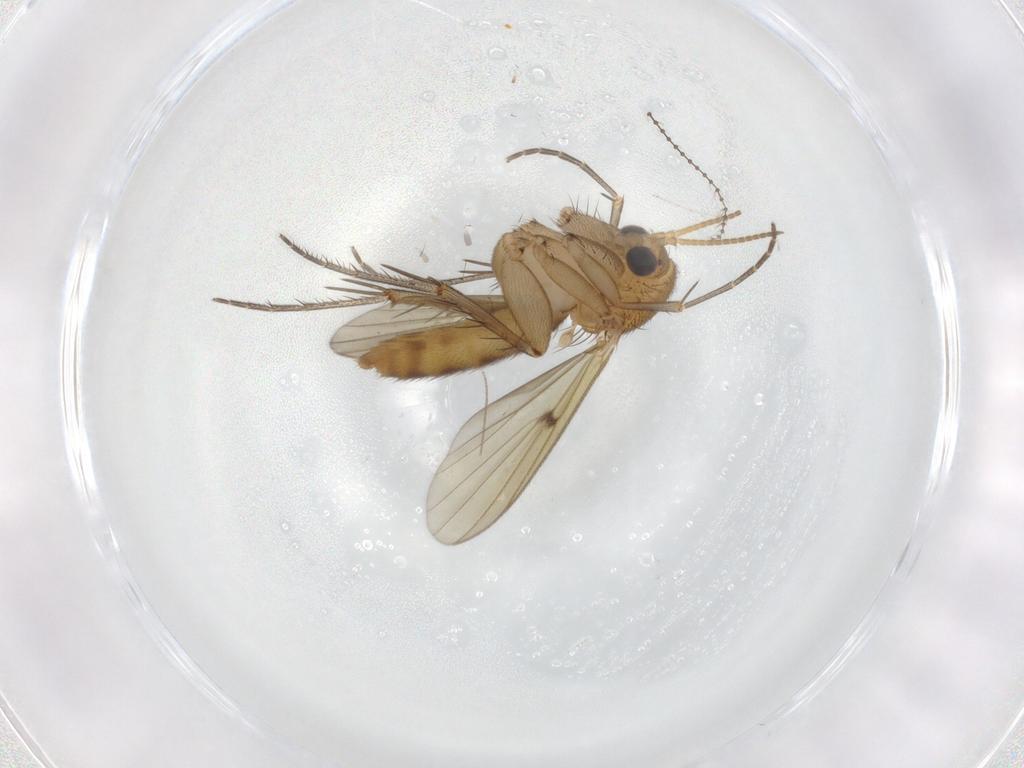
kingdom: Animalia
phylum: Arthropoda
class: Insecta
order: Diptera
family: Mycetophilidae
